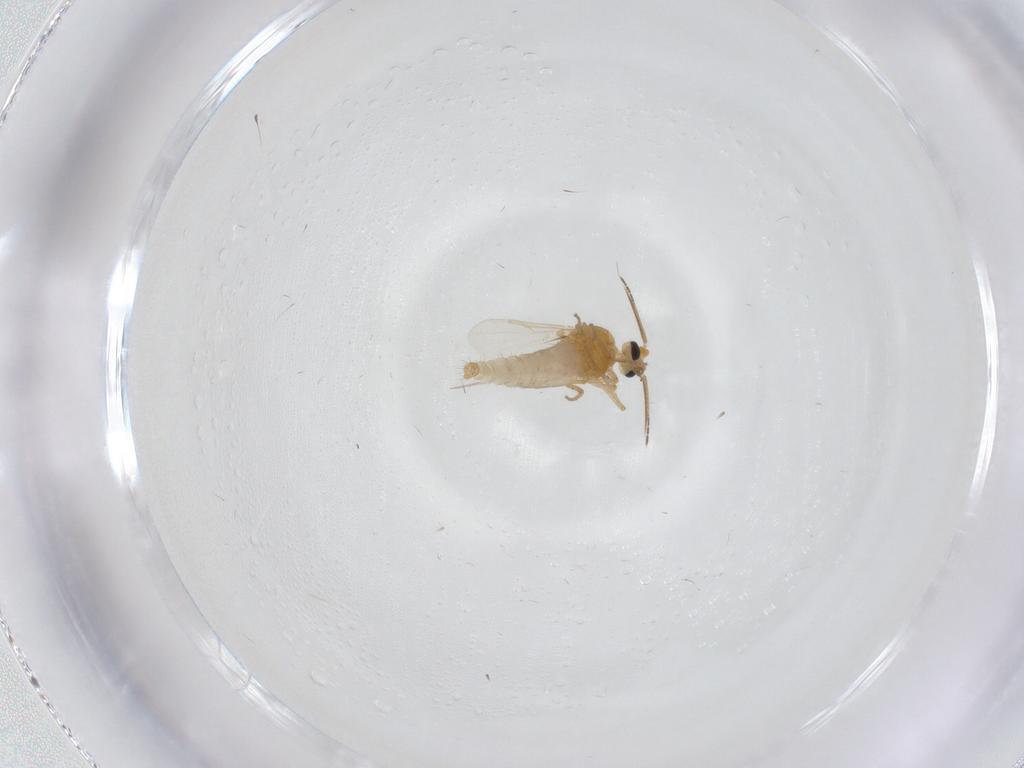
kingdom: Animalia
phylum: Arthropoda
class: Insecta
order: Diptera
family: Ceratopogonidae
